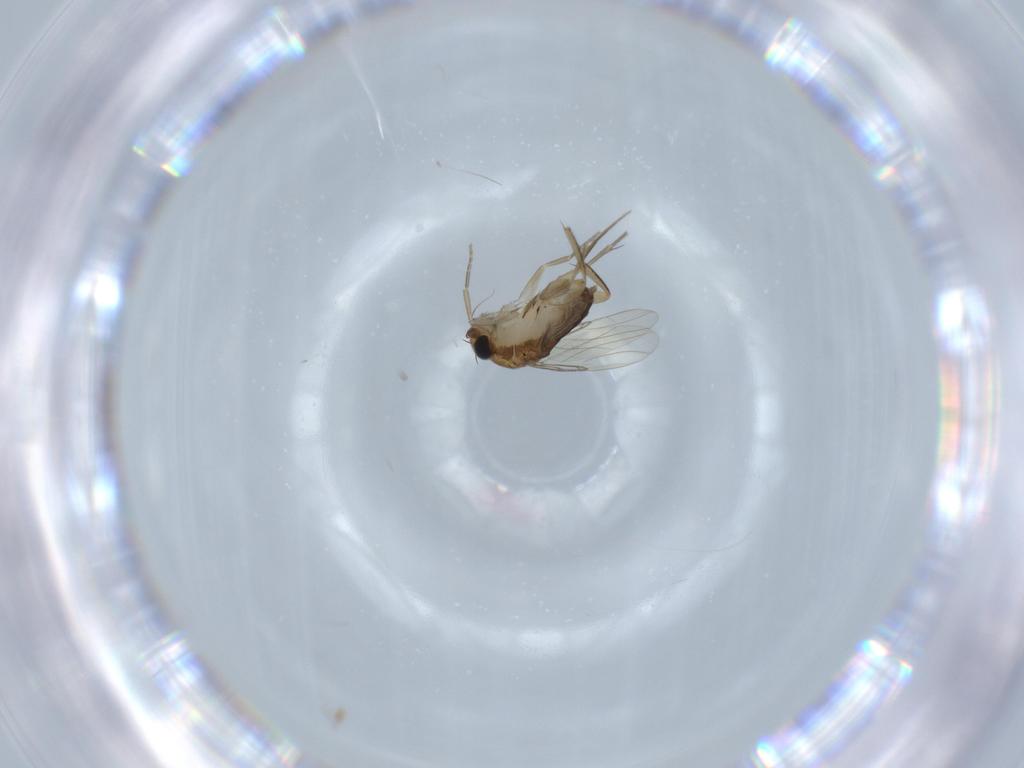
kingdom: Animalia
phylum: Arthropoda
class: Insecta
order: Diptera
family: Phoridae
